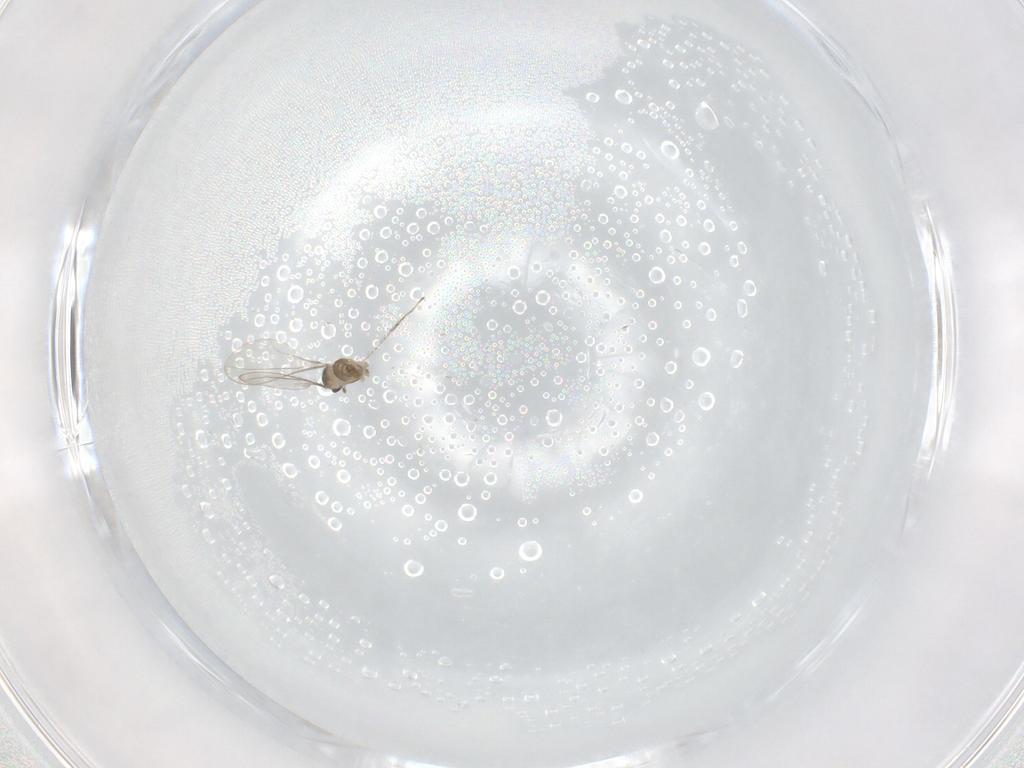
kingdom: Animalia
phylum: Arthropoda
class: Insecta
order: Diptera
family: Cecidomyiidae
